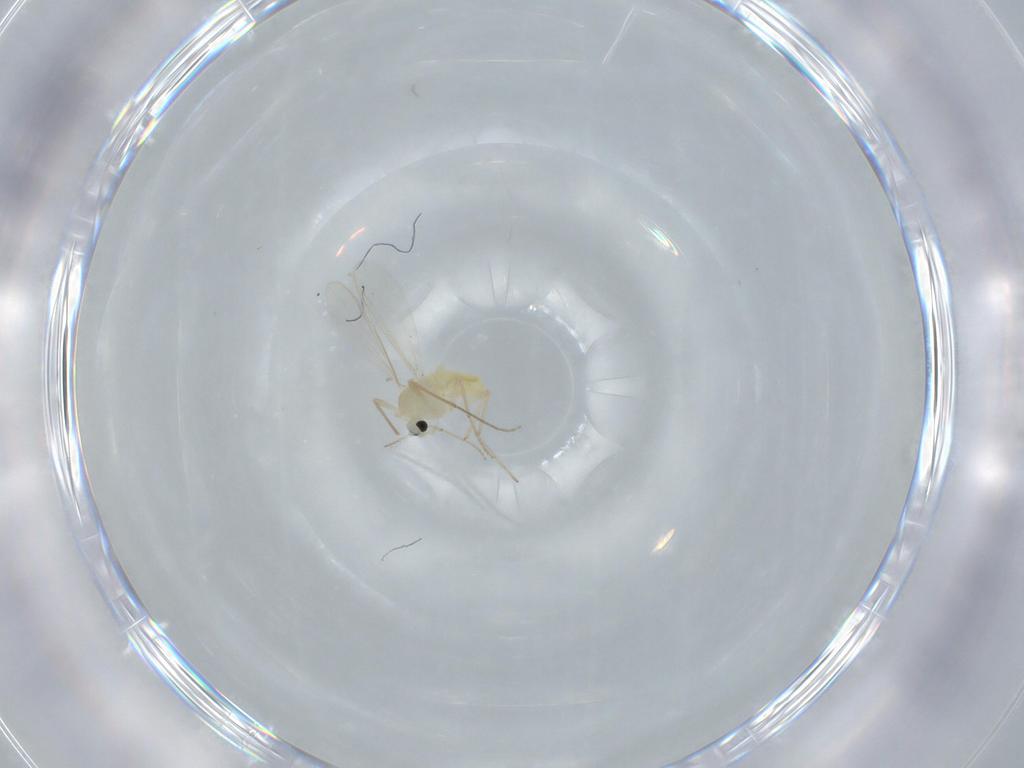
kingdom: Animalia
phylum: Arthropoda
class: Insecta
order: Diptera
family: Chironomidae
